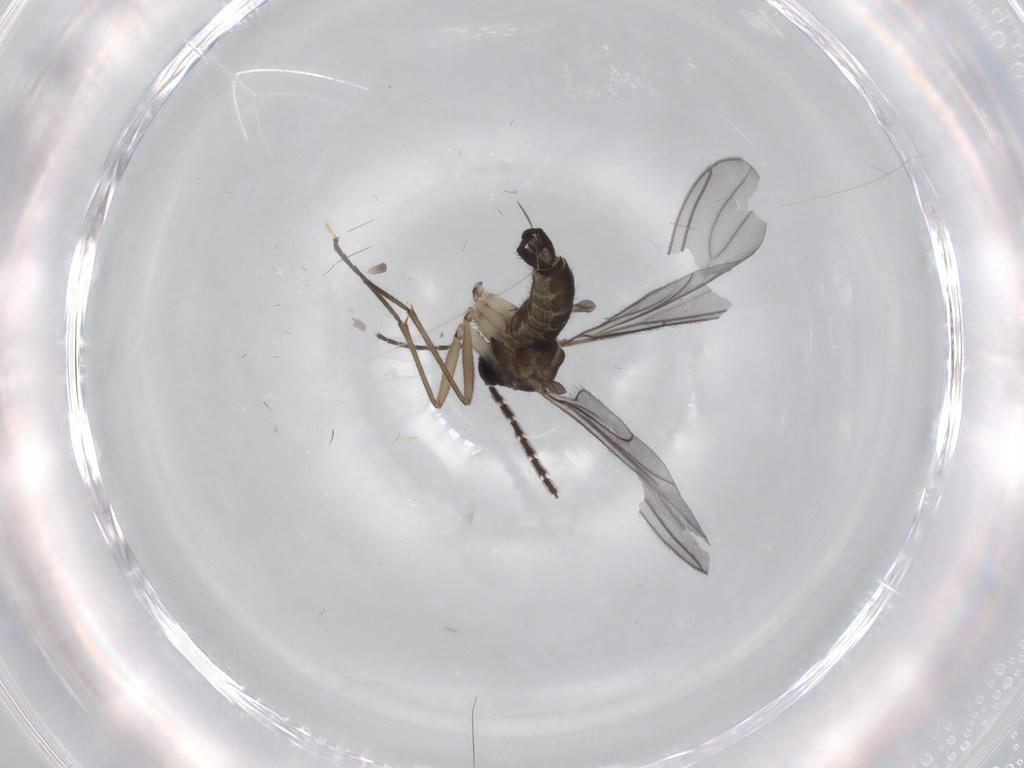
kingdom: Animalia
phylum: Arthropoda
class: Insecta
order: Diptera
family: Sciaridae
